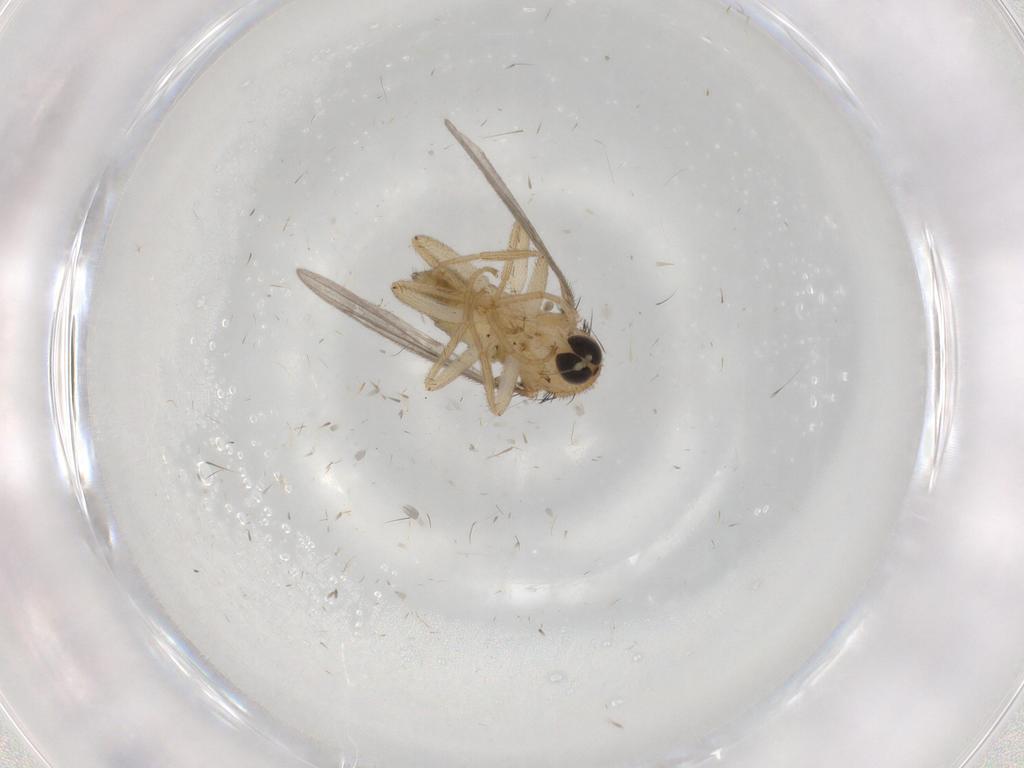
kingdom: Animalia
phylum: Arthropoda
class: Insecta
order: Diptera
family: Hybotidae
